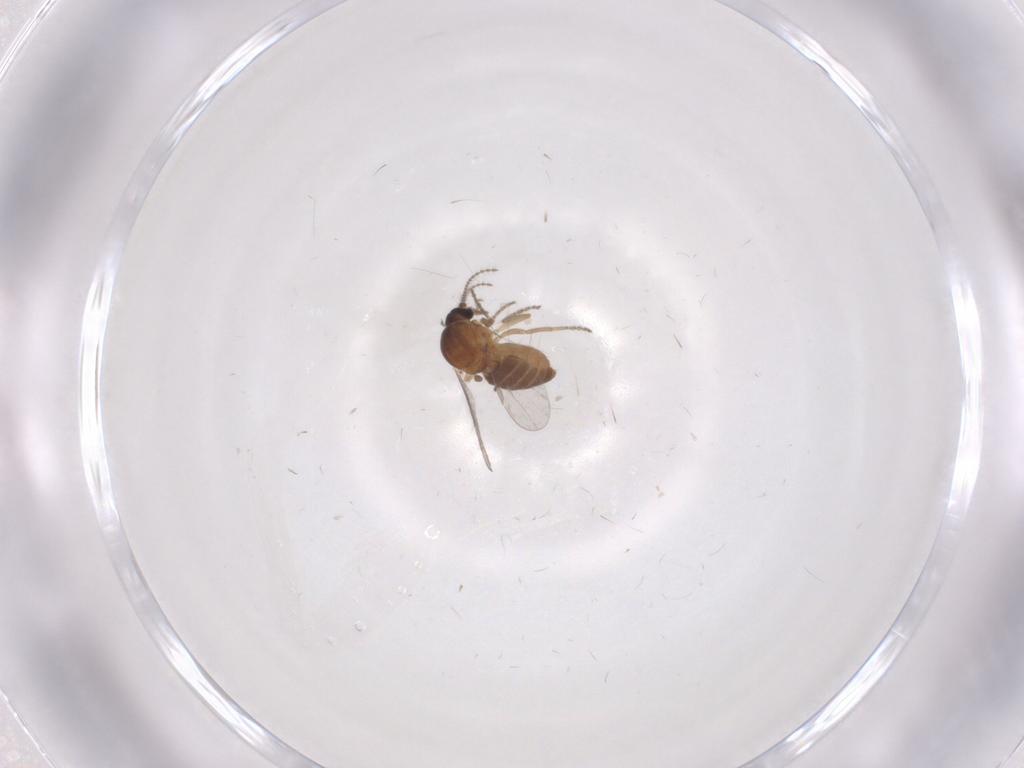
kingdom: Animalia
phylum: Arthropoda
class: Insecta
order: Diptera
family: Ceratopogonidae
